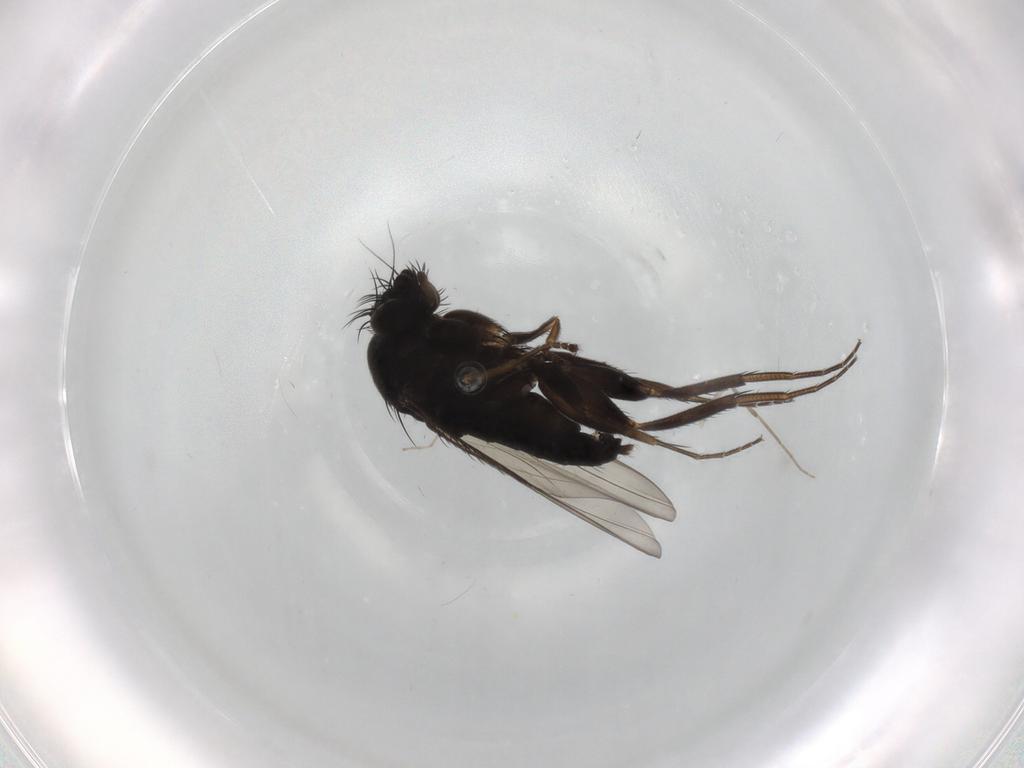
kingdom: Animalia
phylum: Arthropoda
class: Insecta
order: Diptera
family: Phoridae
